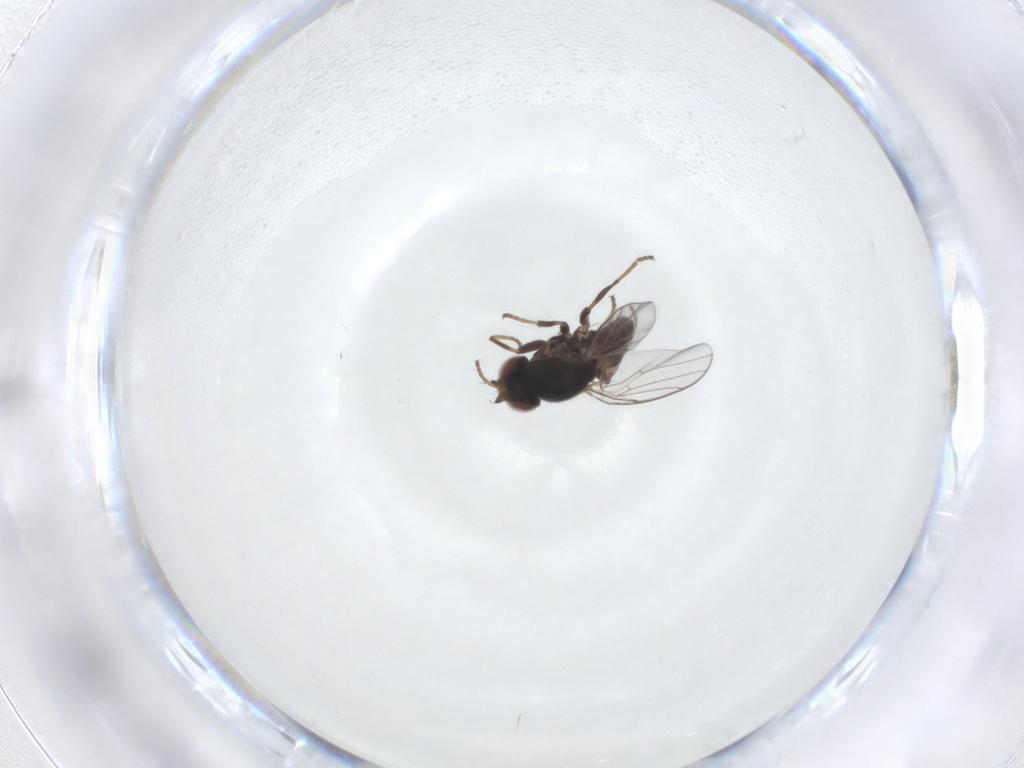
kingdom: Animalia
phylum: Arthropoda
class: Insecta
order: Diptera
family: Chloropidae
